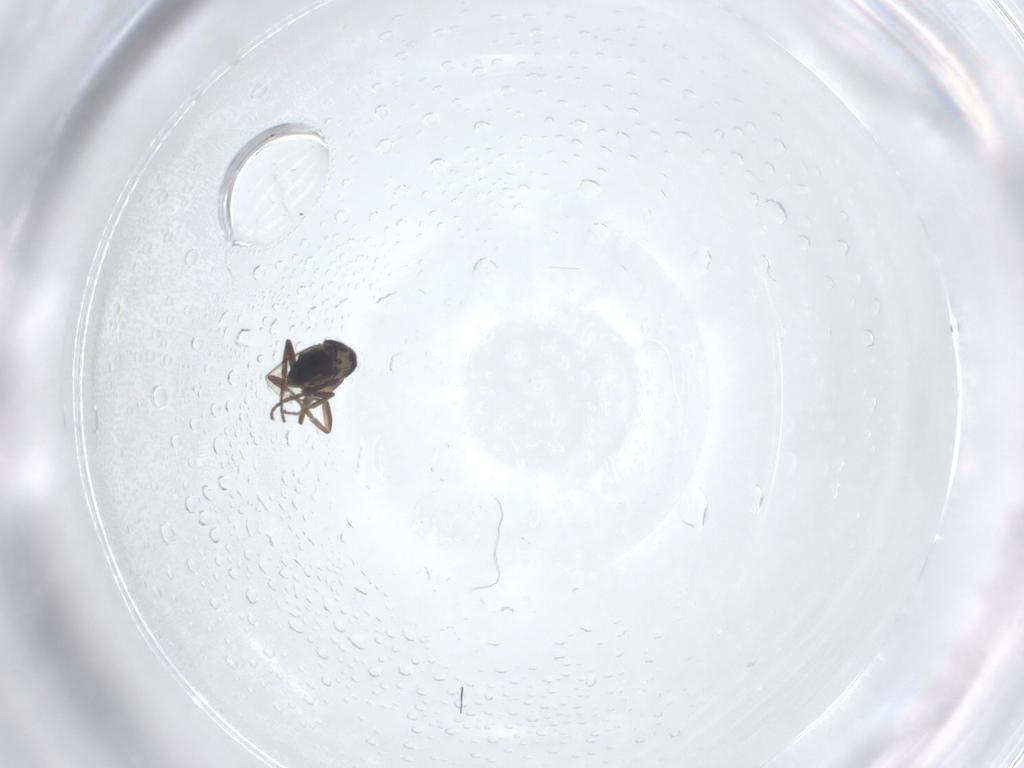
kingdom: Animalia
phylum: Arthropoda
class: Insecta
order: Diptera
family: Phoridae
